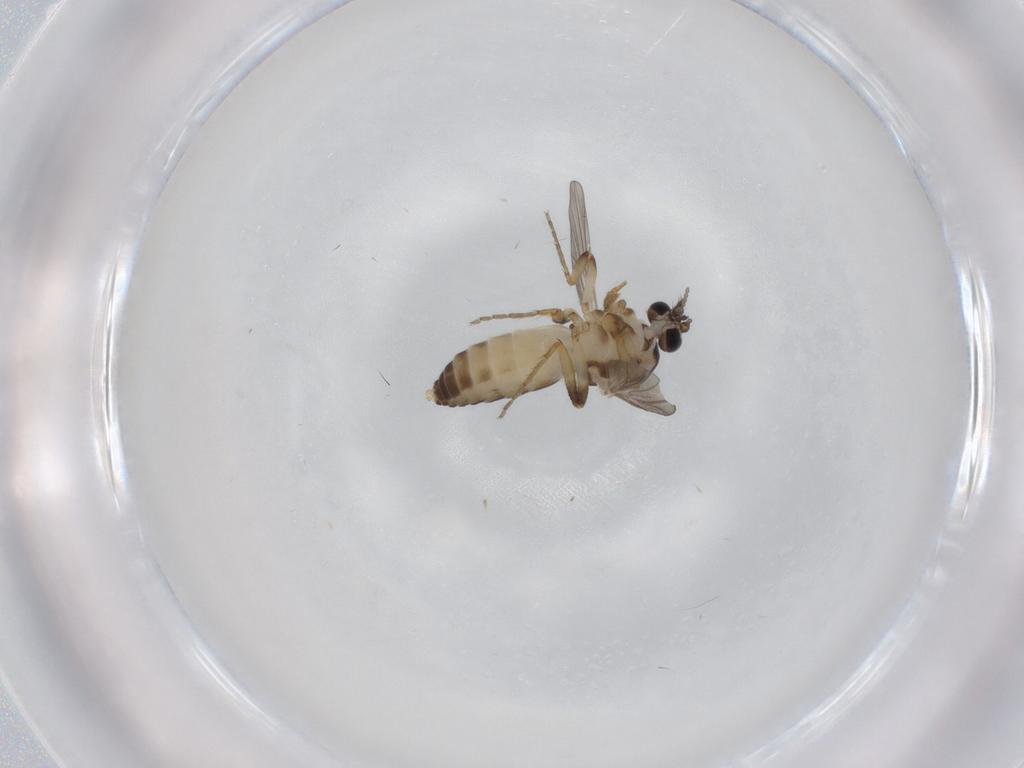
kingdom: Animalia
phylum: Arthropoda
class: Insecta
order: Diptera
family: Ceratopogonidae
